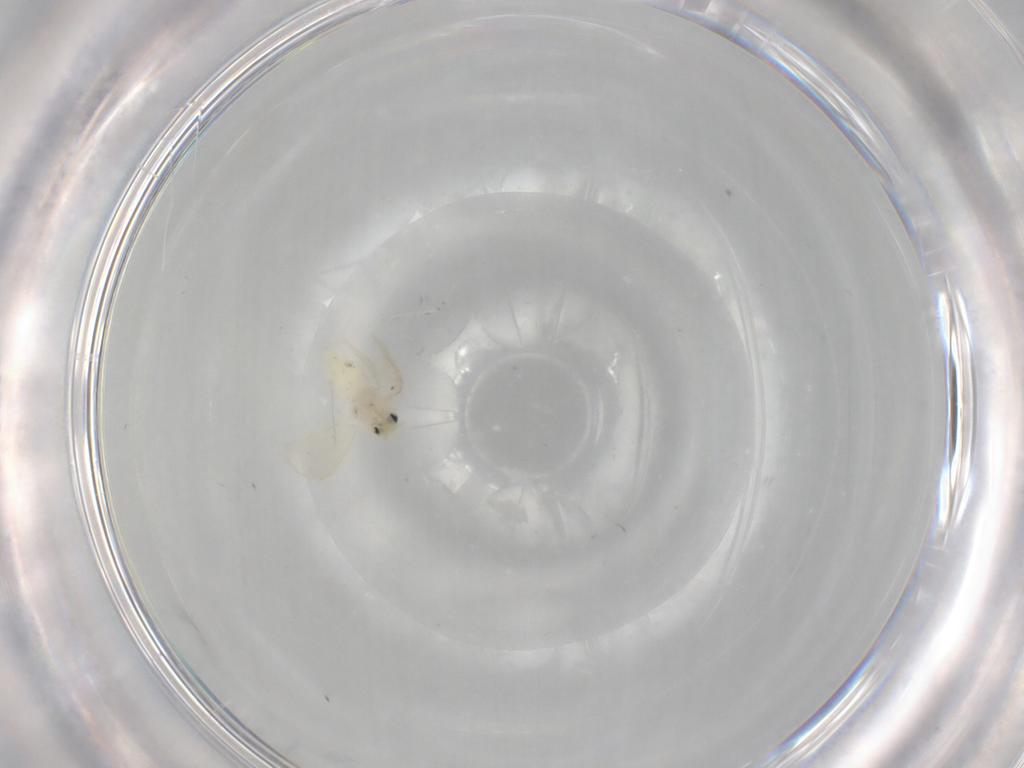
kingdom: Animalia
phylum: Arthropoda
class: Insecta
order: Hemiptera
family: Aleyrodidae
